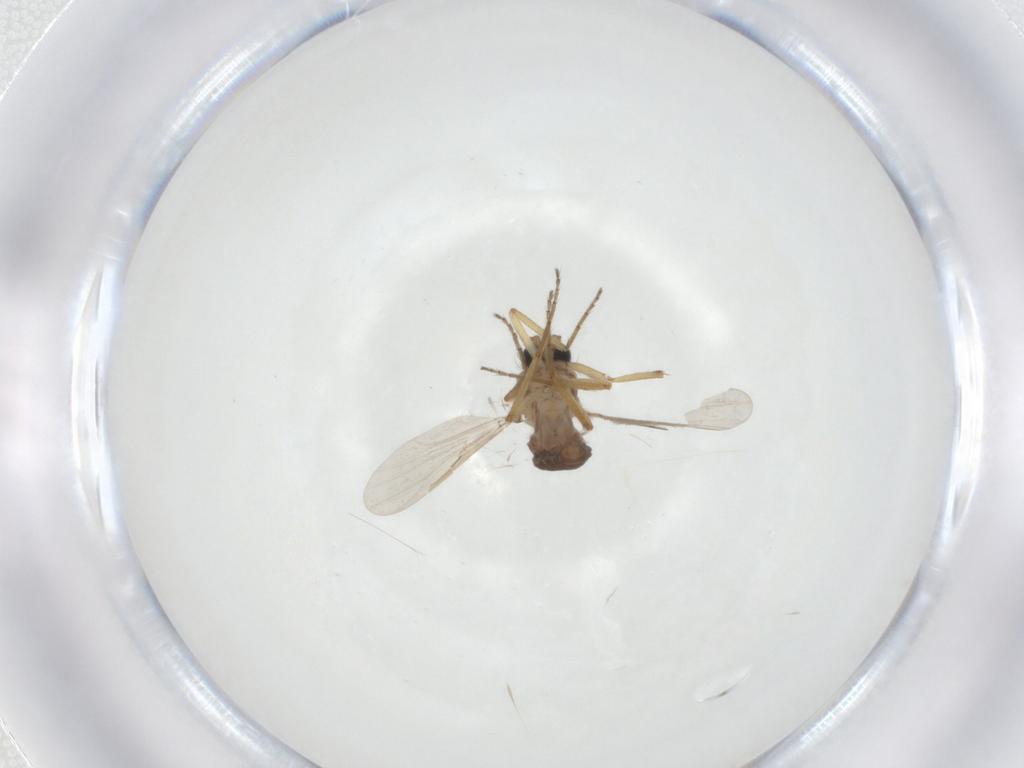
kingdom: Animalia
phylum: Arthropoda
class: Insecta
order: Diptera
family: Ceratopogonidae
